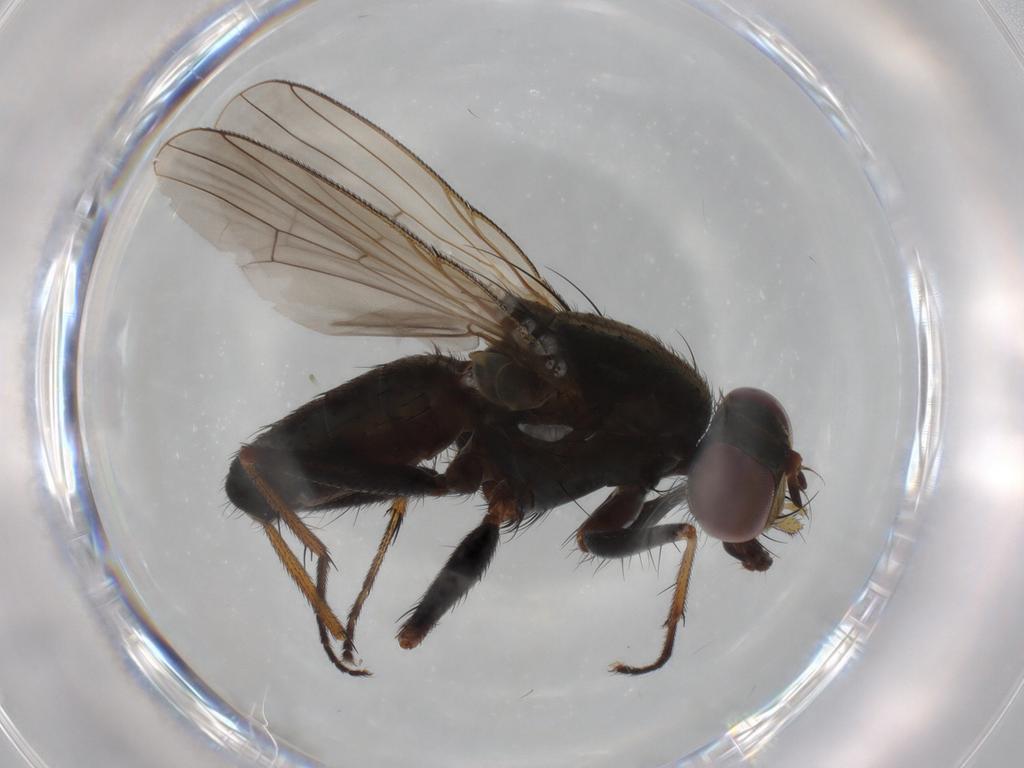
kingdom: Animalia
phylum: Arthropoda
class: Insecta
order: Diptera
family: Muscidae
